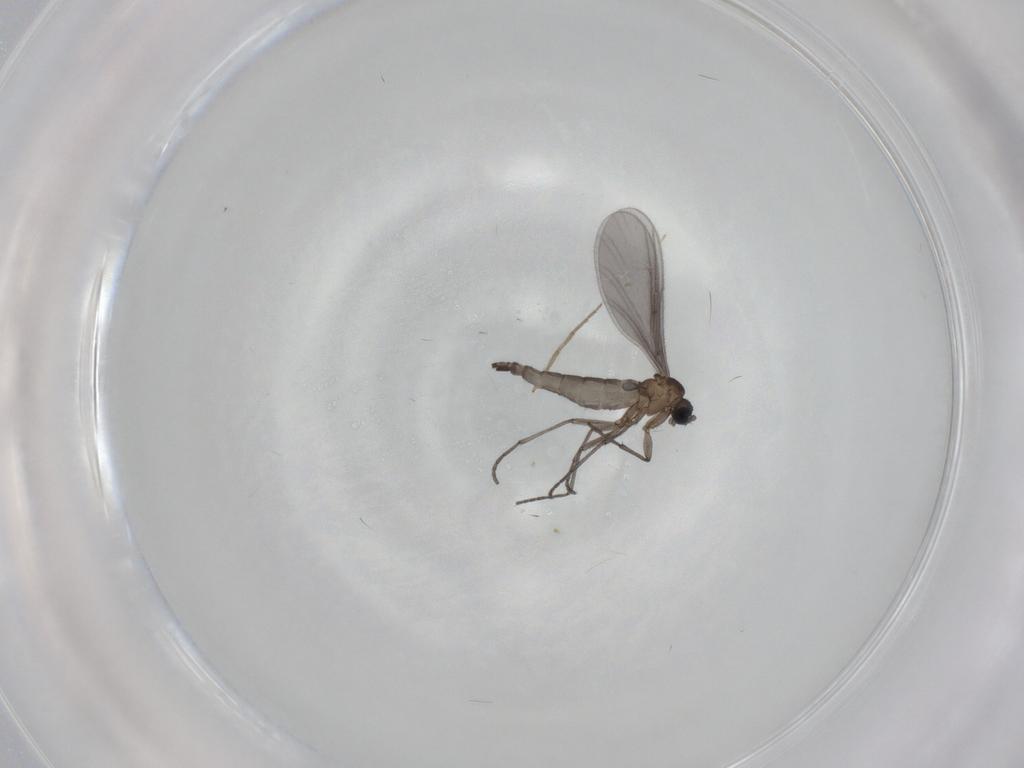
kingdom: Animalia
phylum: Arthropoda
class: Insecta
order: Diptera
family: Sciaridae
